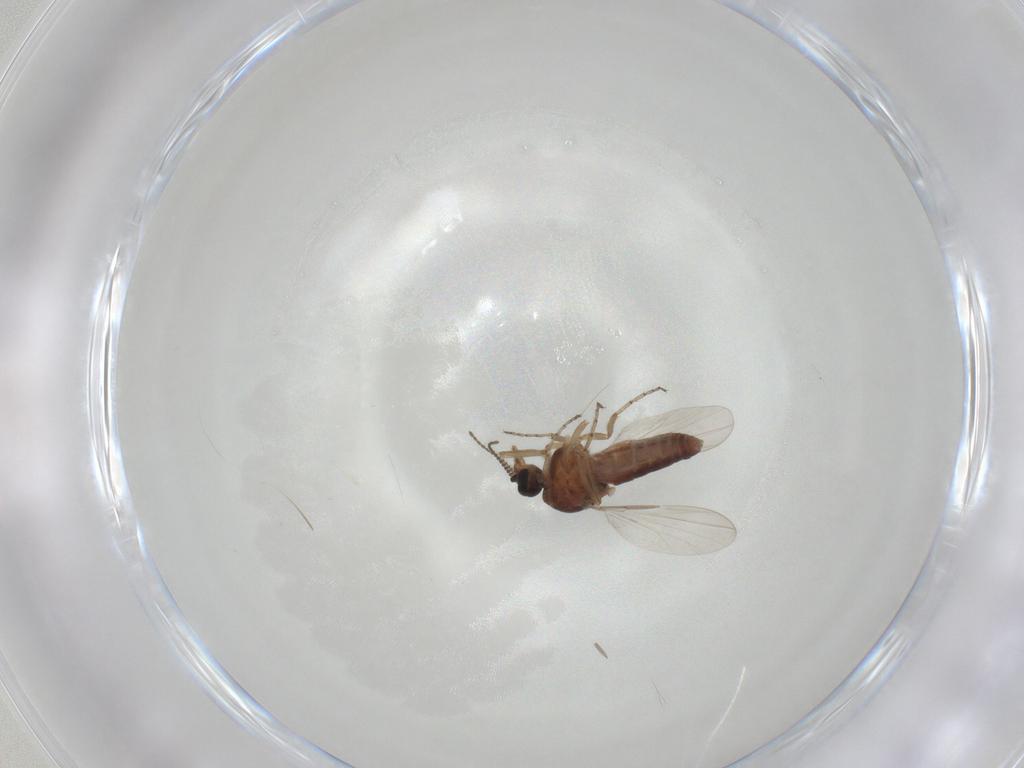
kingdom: Animalia
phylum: Arthropoda
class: Insecta
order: Diptera
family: Ceratopogonidae
